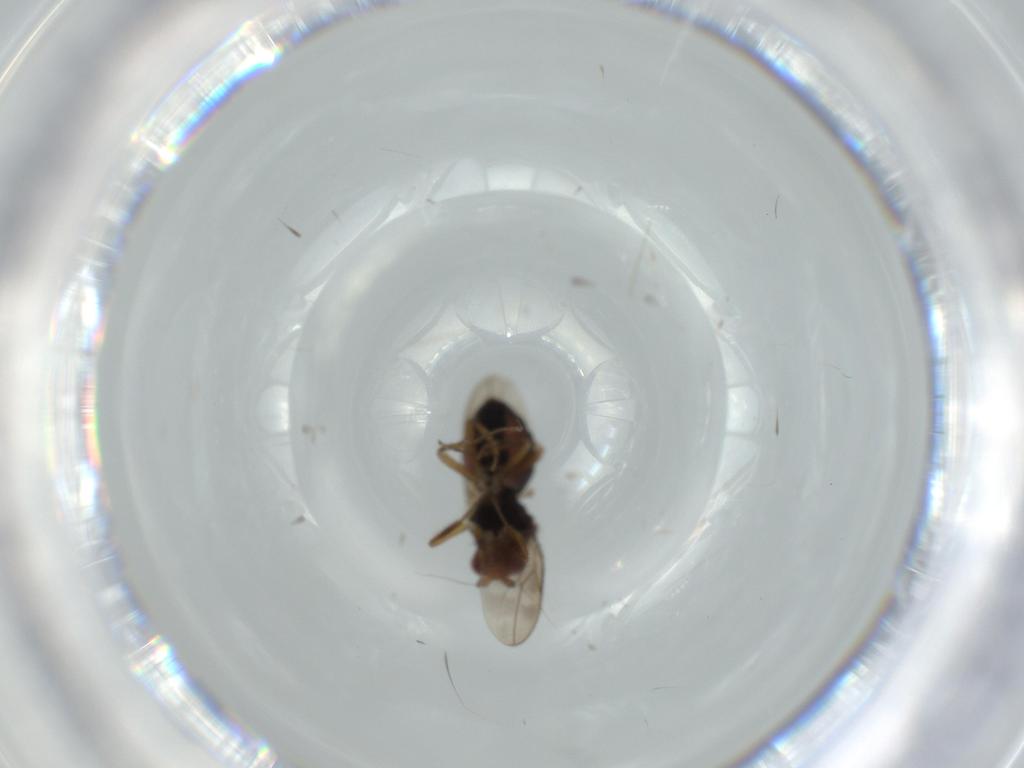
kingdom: Animalia
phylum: Arthropoda
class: Insecta
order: Diptera
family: Sphaeroceridae
